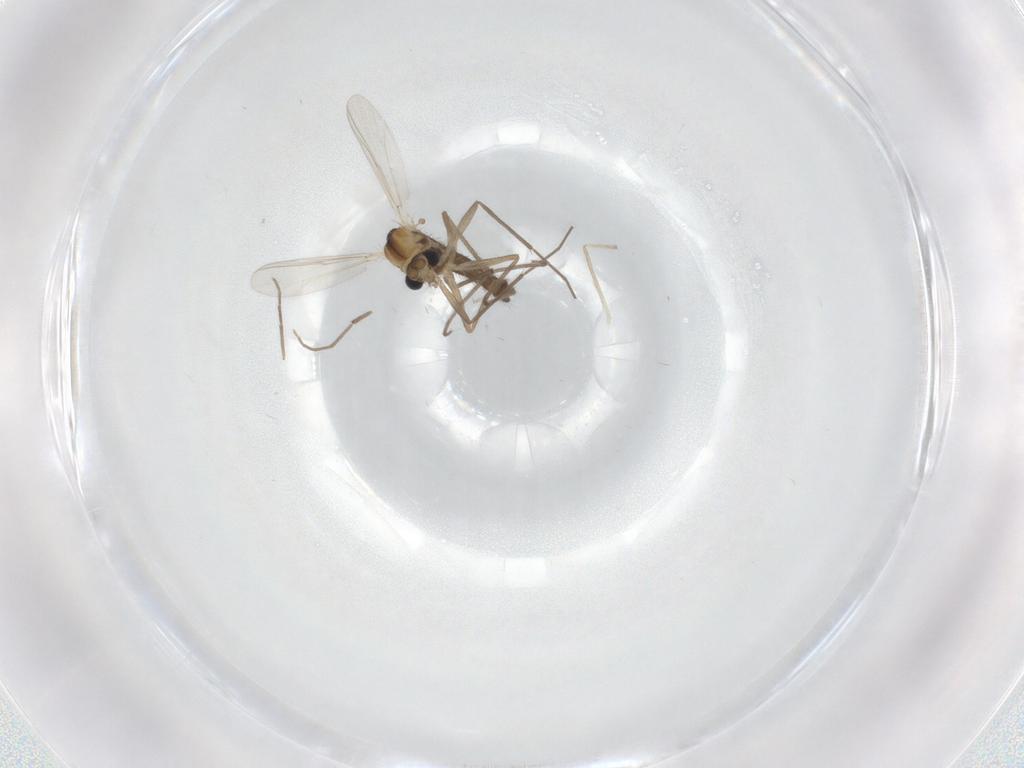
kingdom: Animalia
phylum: Arthropoda
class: Insecta
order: Diptera
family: Chironomidae
